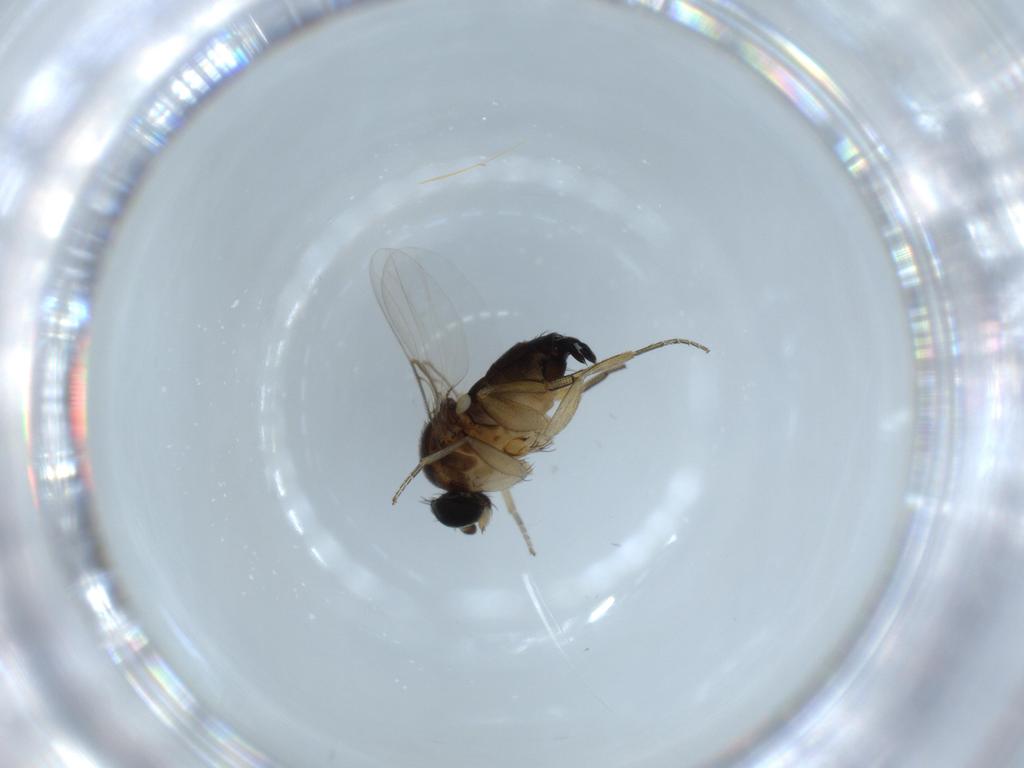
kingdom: Animalia
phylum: Arthropoda
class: Insecta
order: Diptera
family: Phoridae
